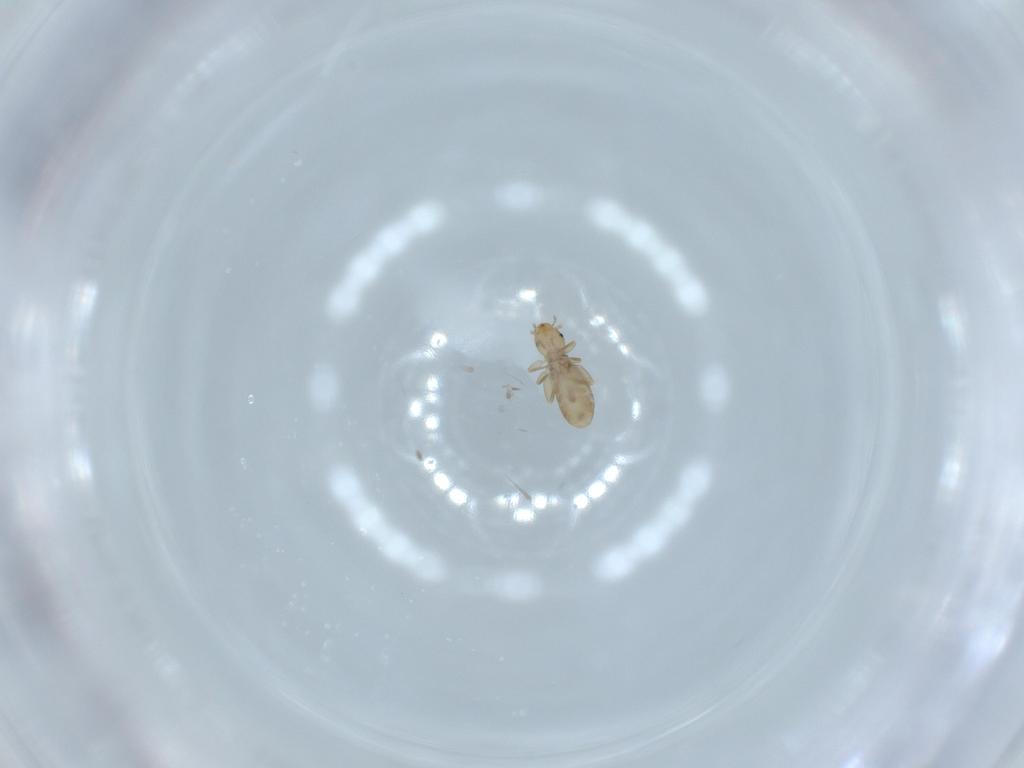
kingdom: Animalia
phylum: Arthropoda
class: Insecta
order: Psocodea
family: Liposcelididae
